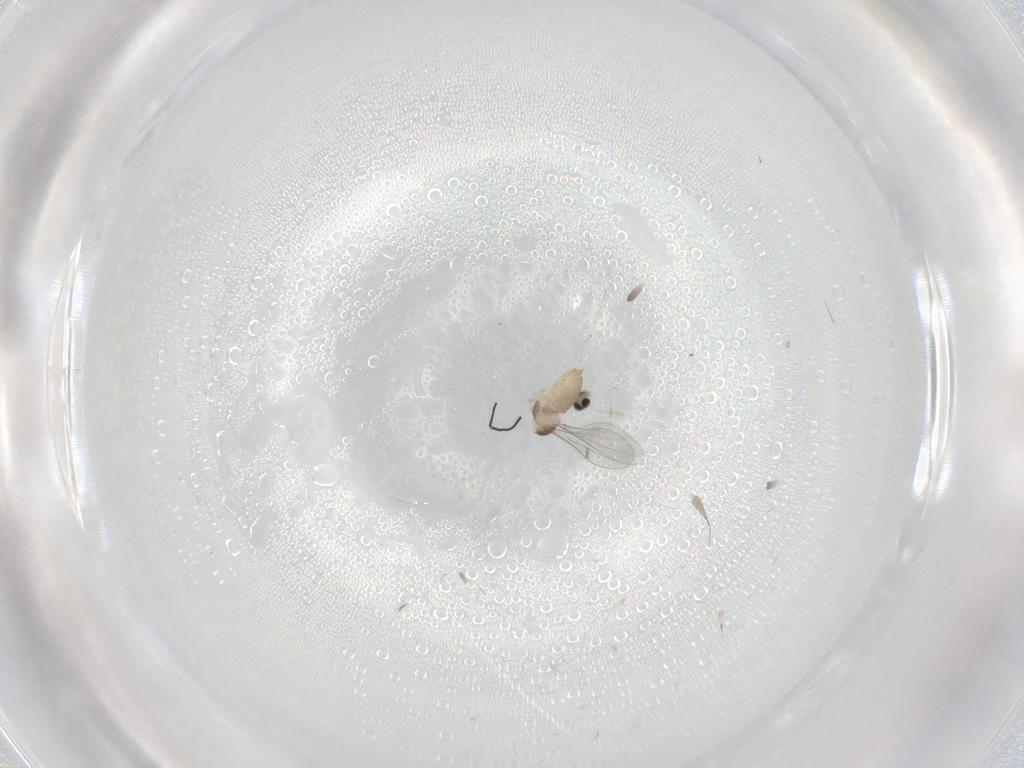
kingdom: Animalia
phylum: Arthropoda
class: Insecta
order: Diptera
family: Cecidomyiidae
